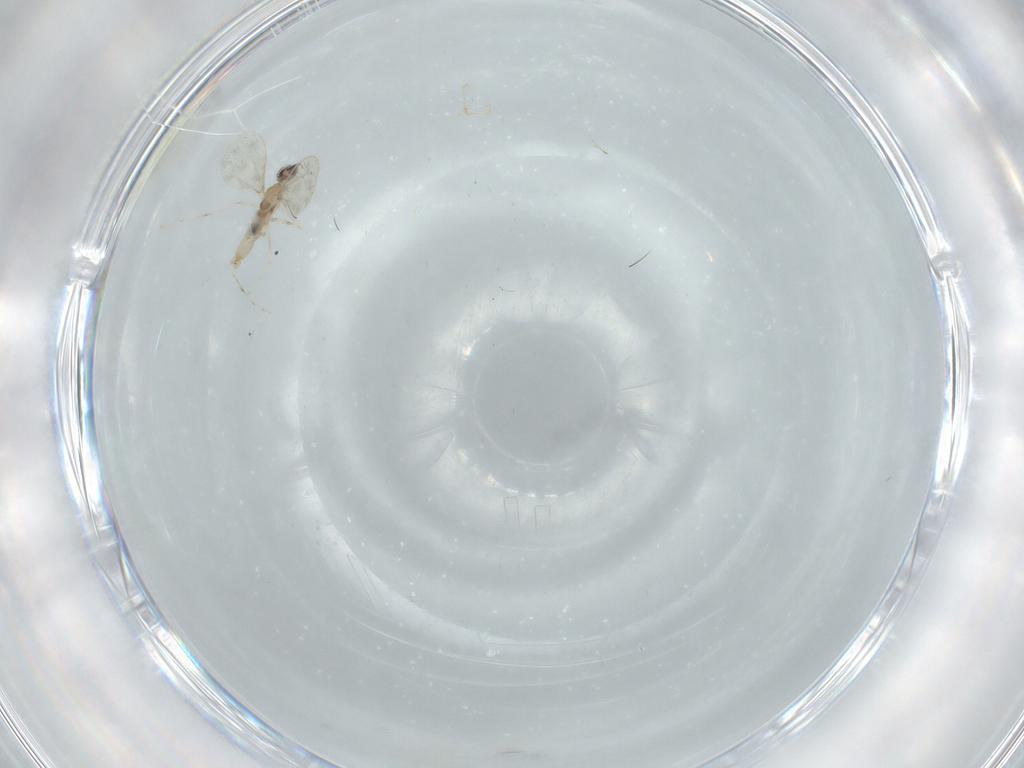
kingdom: Animalia
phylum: Arthropoda
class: Insecta
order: Diptera
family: Cecidomyiidae
